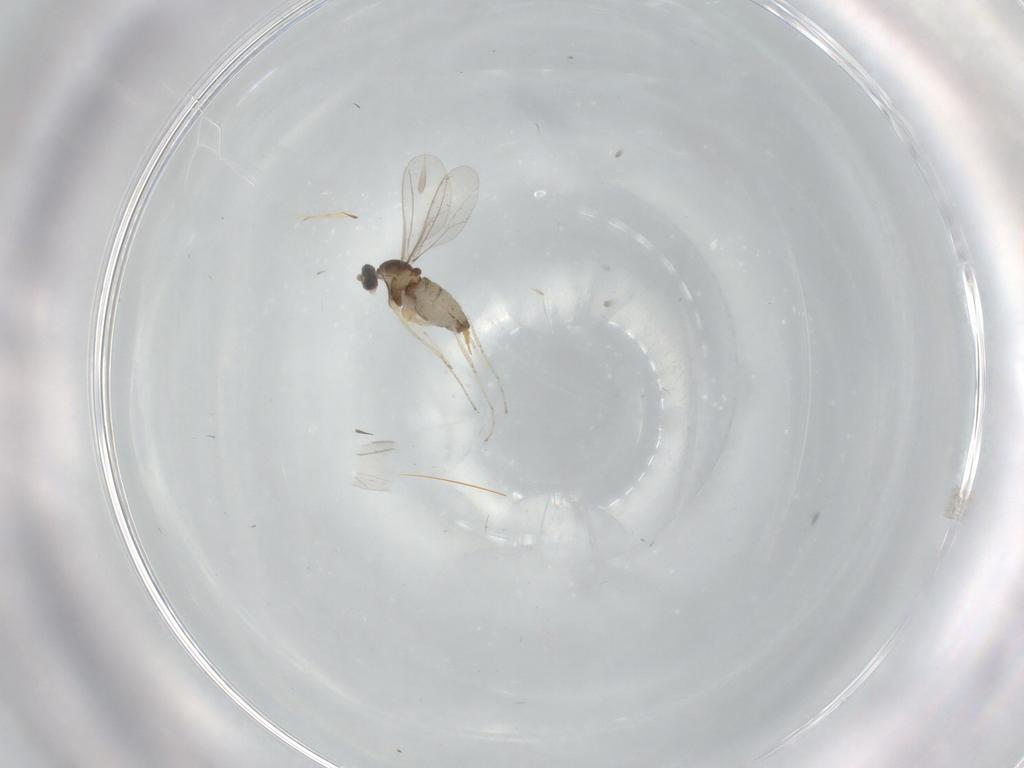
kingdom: Animalia
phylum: Arthropoda
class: Insecta
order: Diptera
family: Cecidomyiidae
